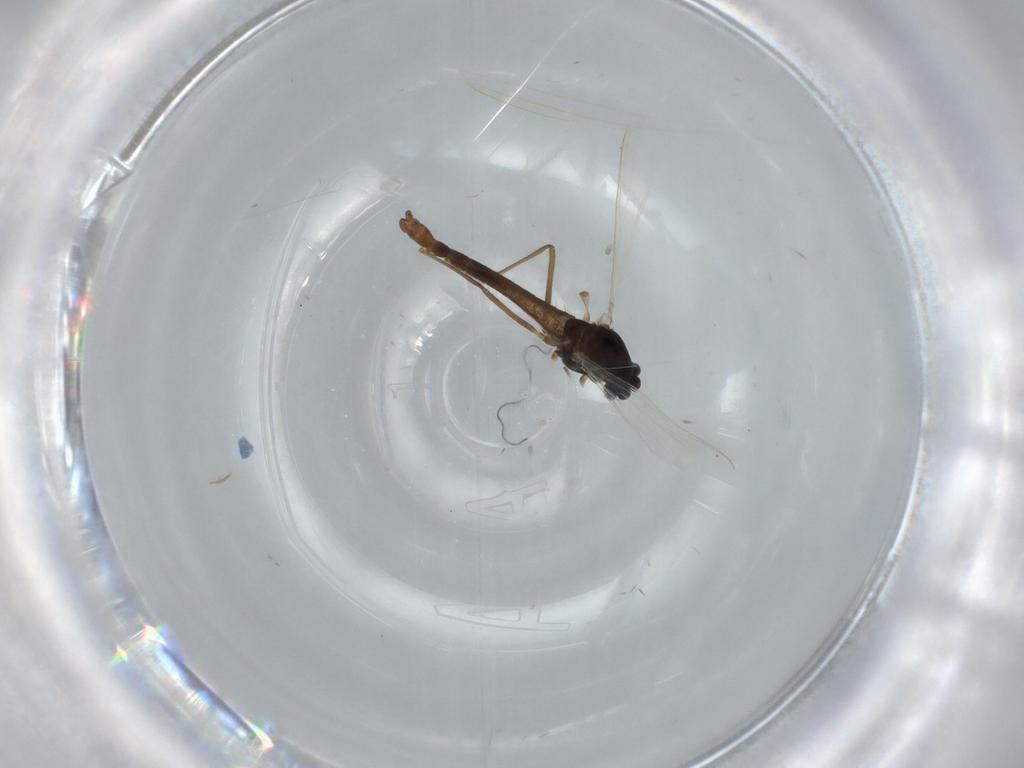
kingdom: Animalia
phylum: Arthropoda
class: Insecta
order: Diptera
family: Chironomidae
